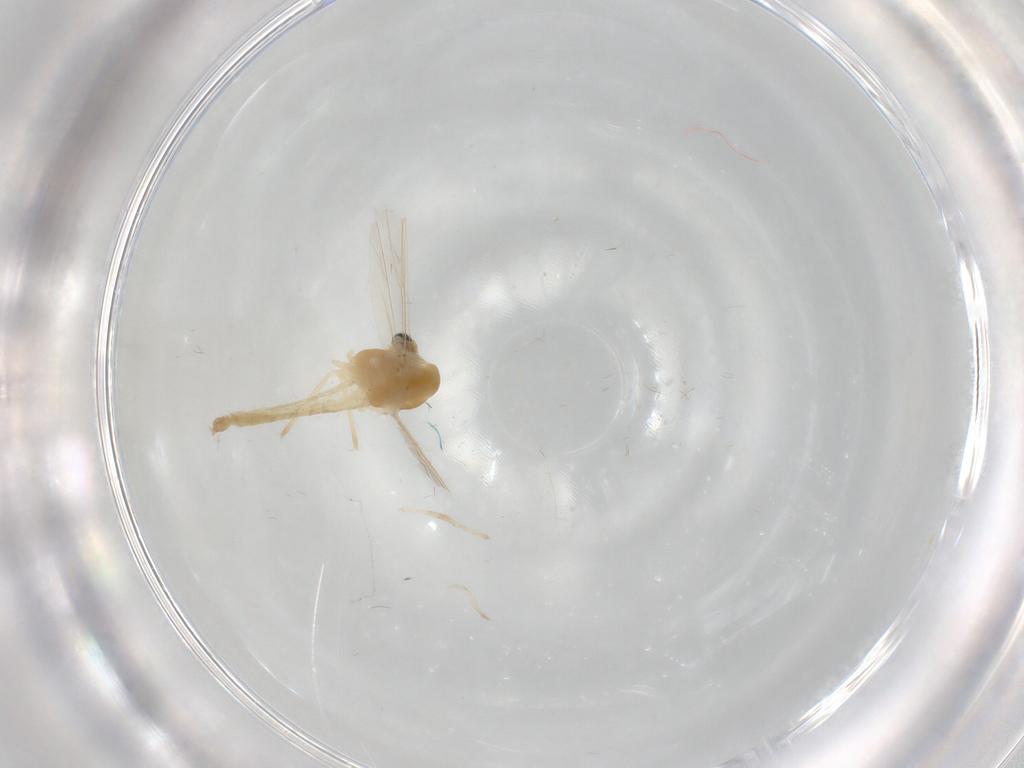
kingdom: Animalia
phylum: Arthropoda
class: Insecta
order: Diptera
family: Chironomidae
